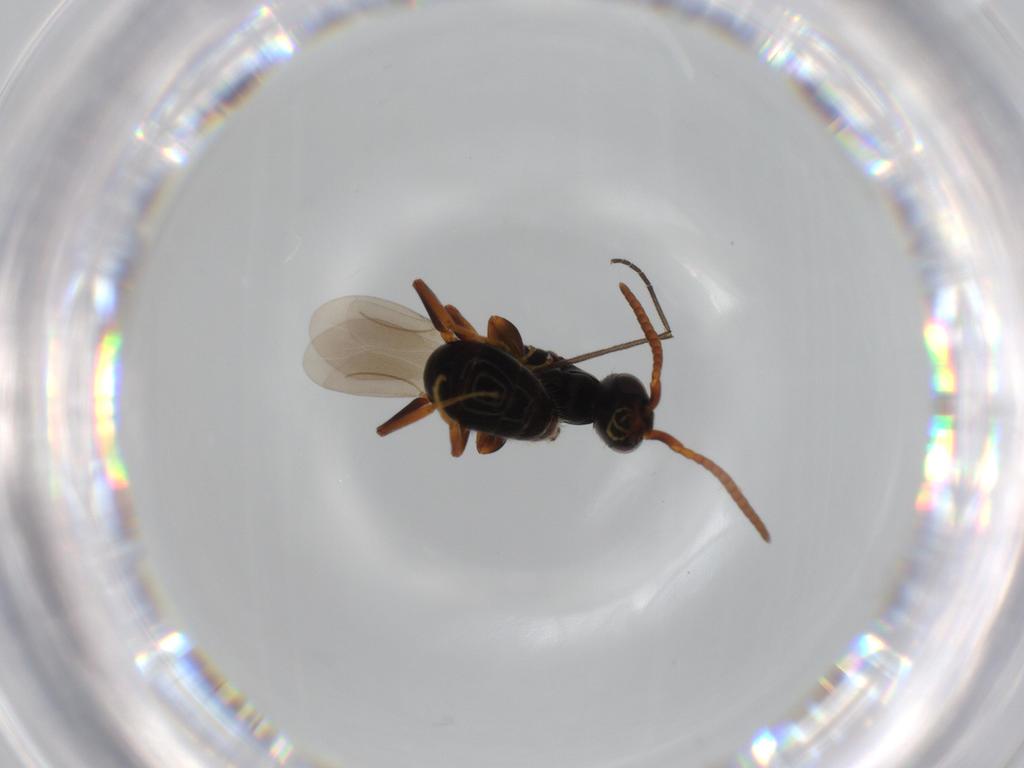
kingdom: Animalia
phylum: Arthropoda
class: Insecta
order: Hymenoptera
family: Bethylidae
